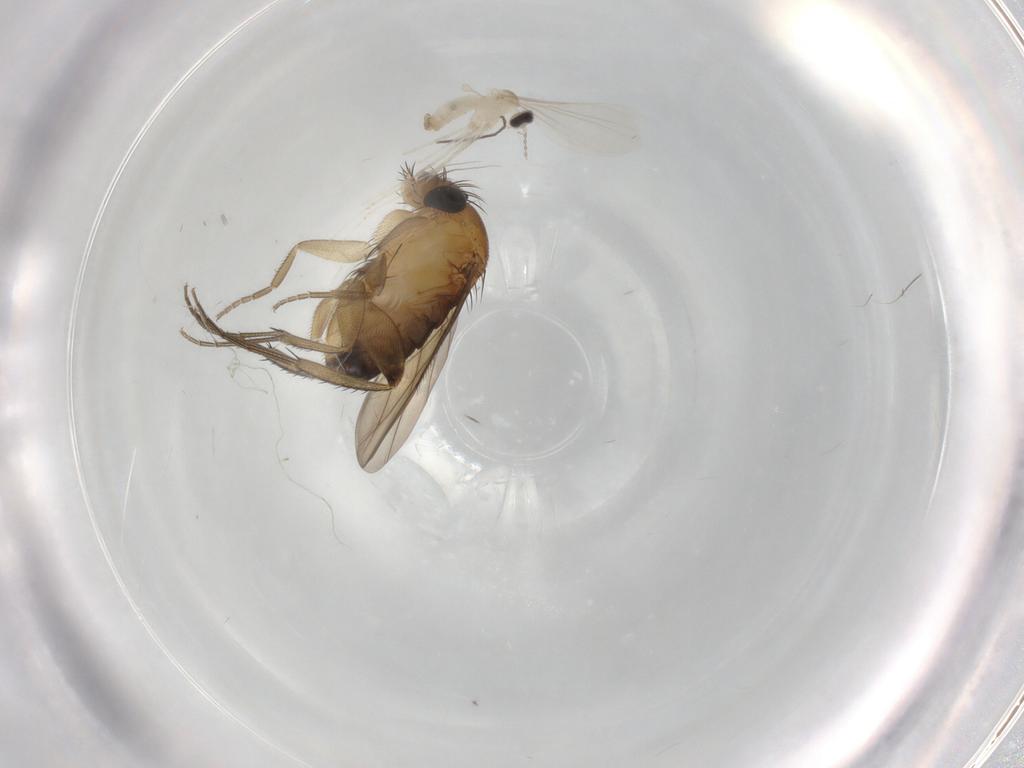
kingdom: Animalia
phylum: Arthropoda
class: Insecta
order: Diptera
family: Phoridae
